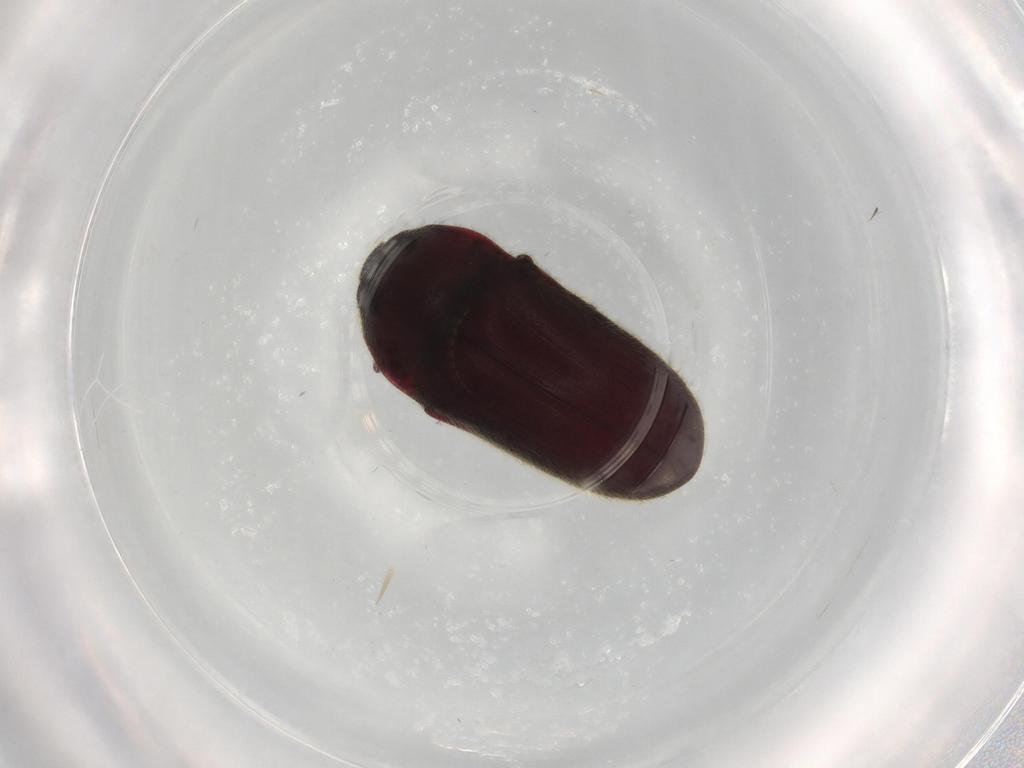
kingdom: Animalia
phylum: Arthropoda
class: Insecta
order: Coleoptera
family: Throscidae
